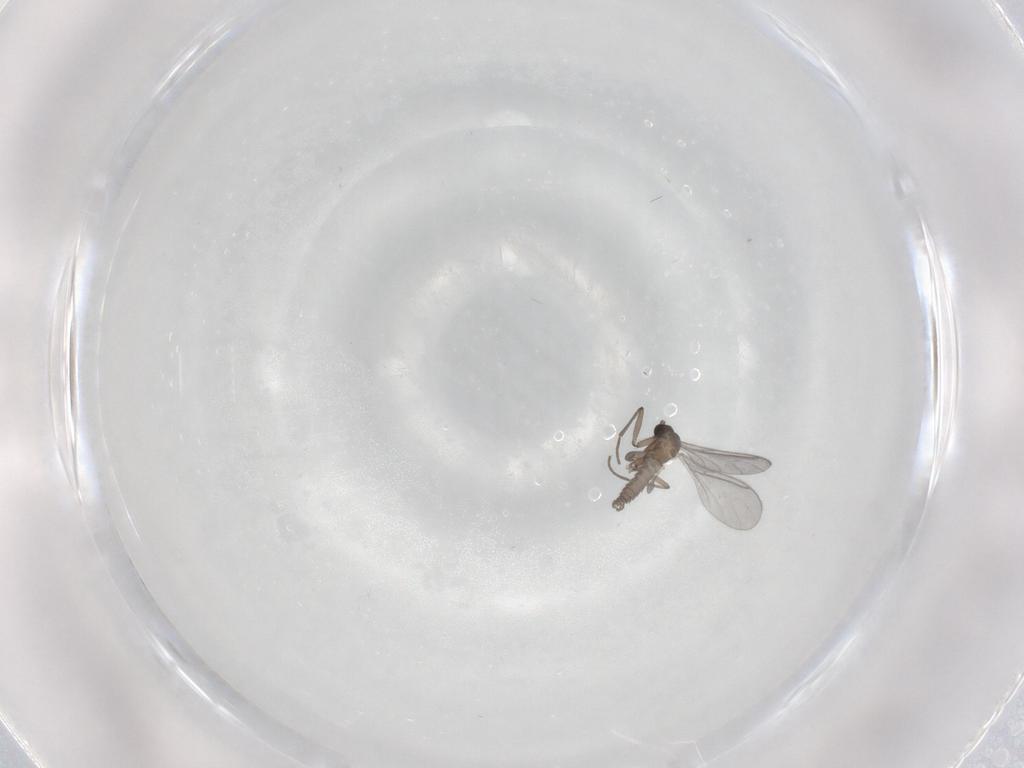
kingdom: Animalia
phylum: Arthropoda
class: Insecta
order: Diptera
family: Sciaridae
